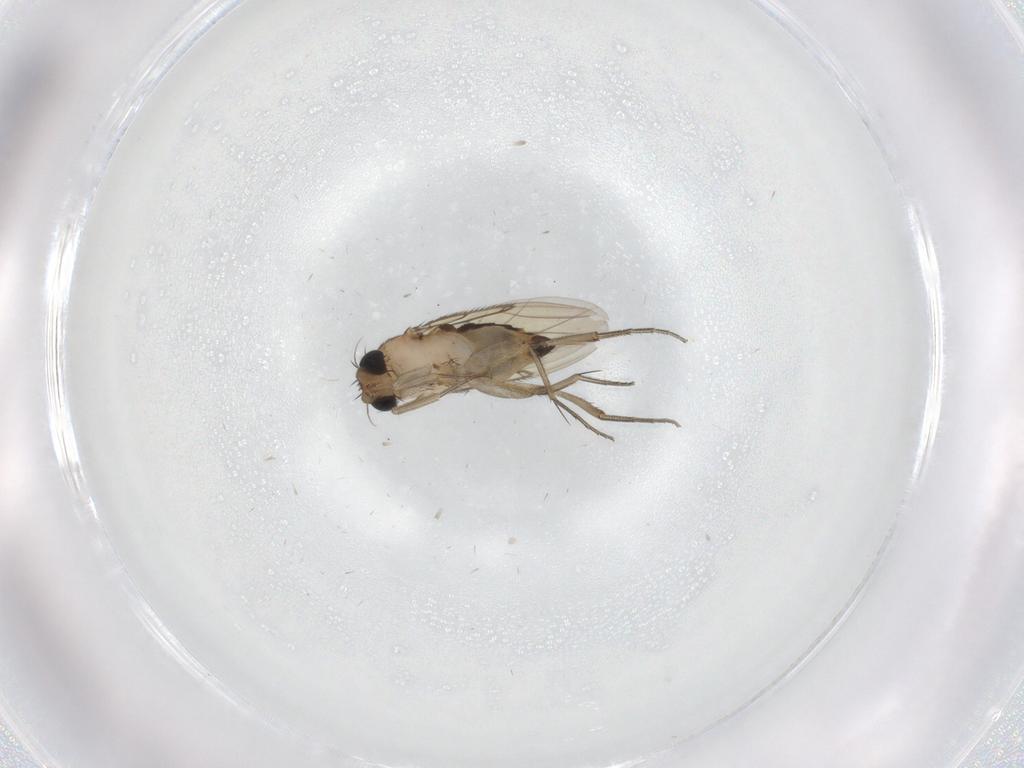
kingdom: Animalia
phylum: Arthropoda
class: Insecta
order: Diptera
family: Phoridae
